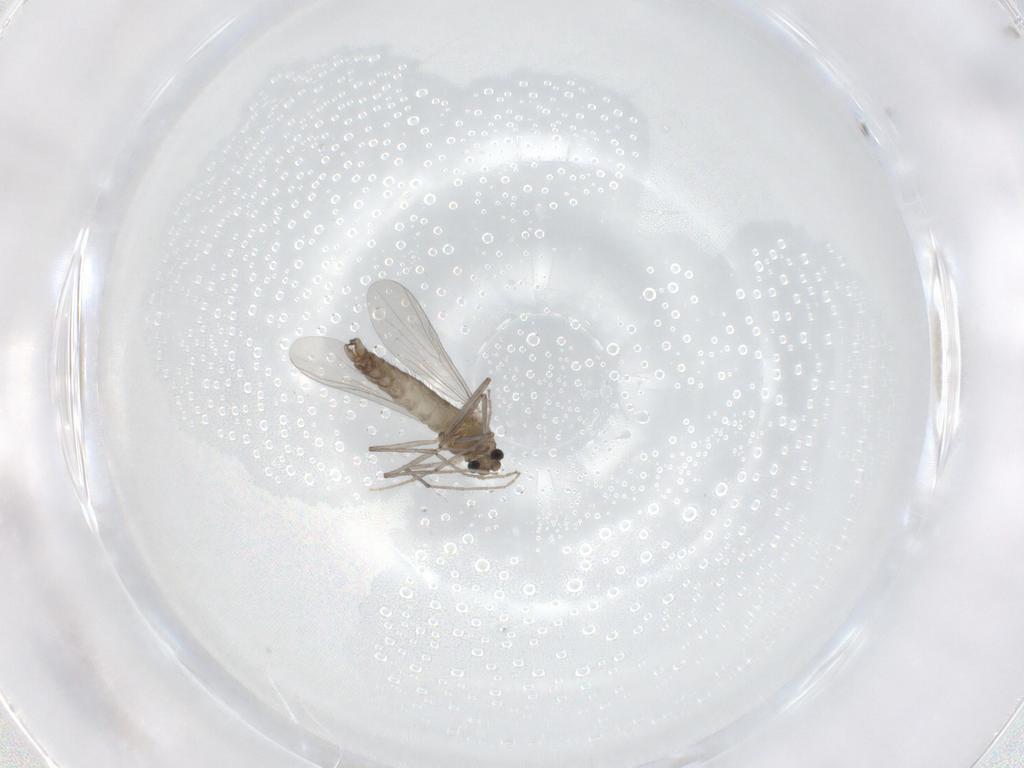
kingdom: Animalia
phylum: Arthropoda
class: Insecta
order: Diptera
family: Chironomidae
